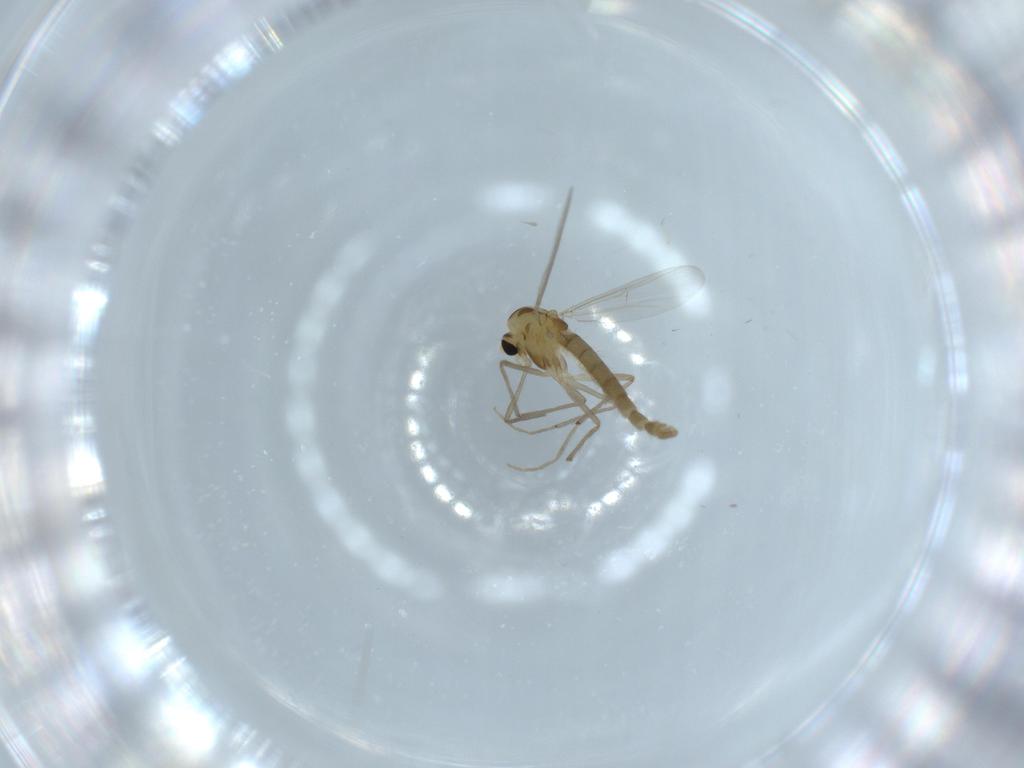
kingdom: Animalia
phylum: Arthropoda
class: Insecta
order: Diptera
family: Chironomidae
